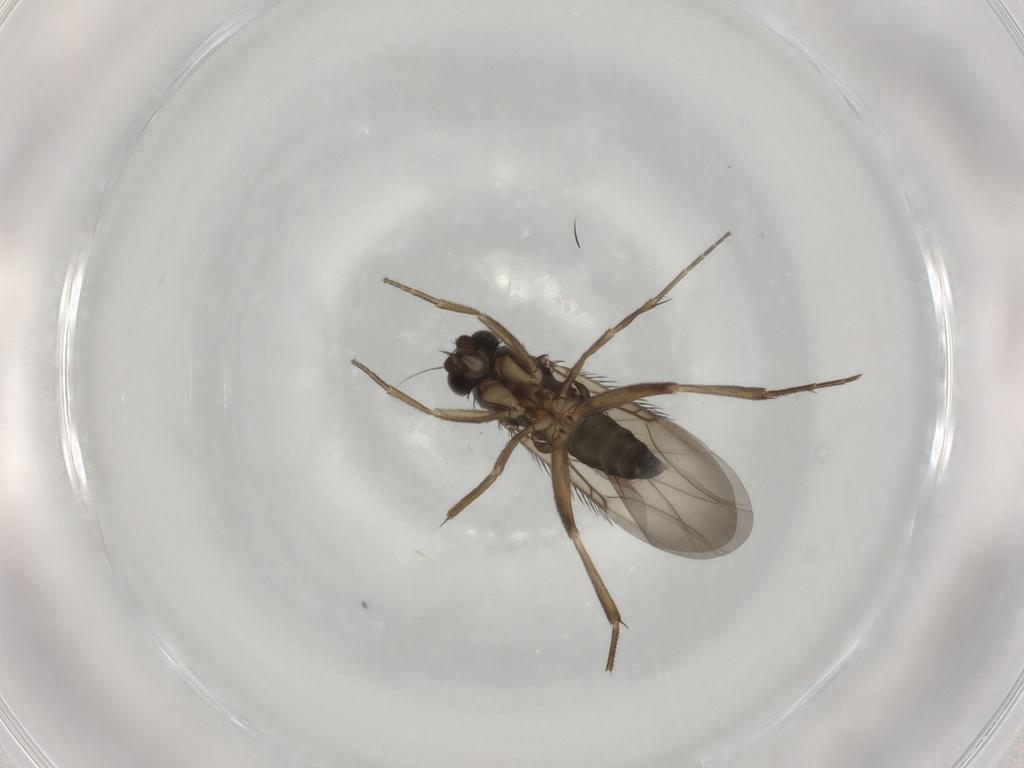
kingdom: Animalia
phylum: Arthropoda
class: Insecta
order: Diptera
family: Phoridae
